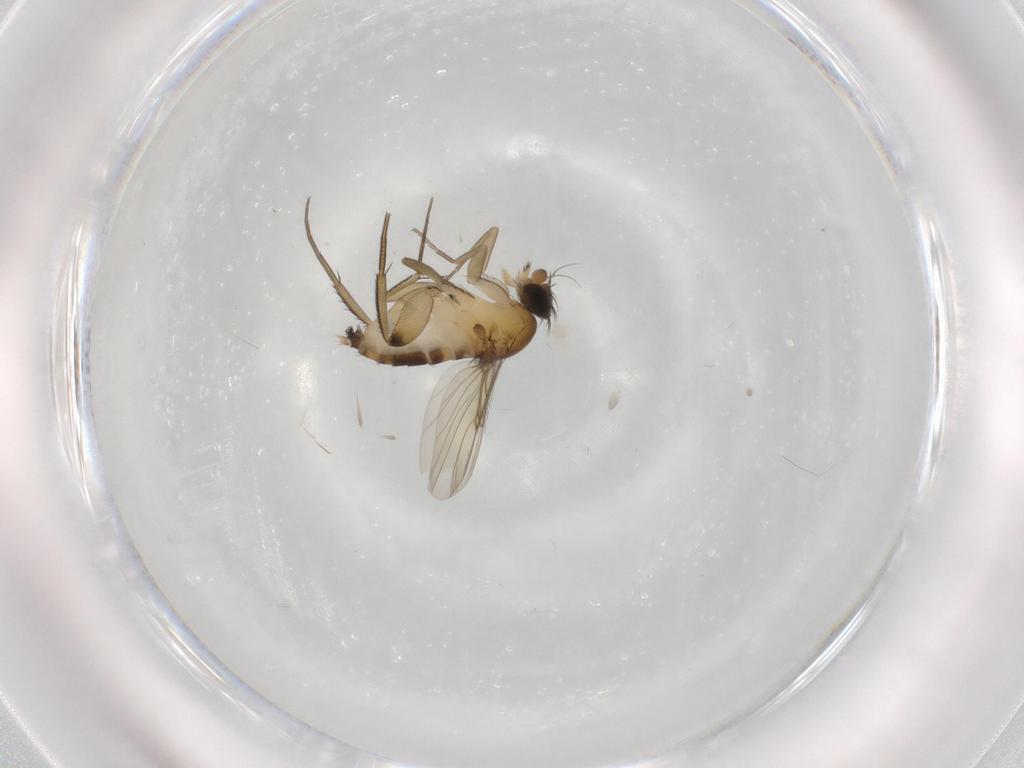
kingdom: Animalia
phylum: Arthropoda
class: Insecta
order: Diptera
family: Phoridae
